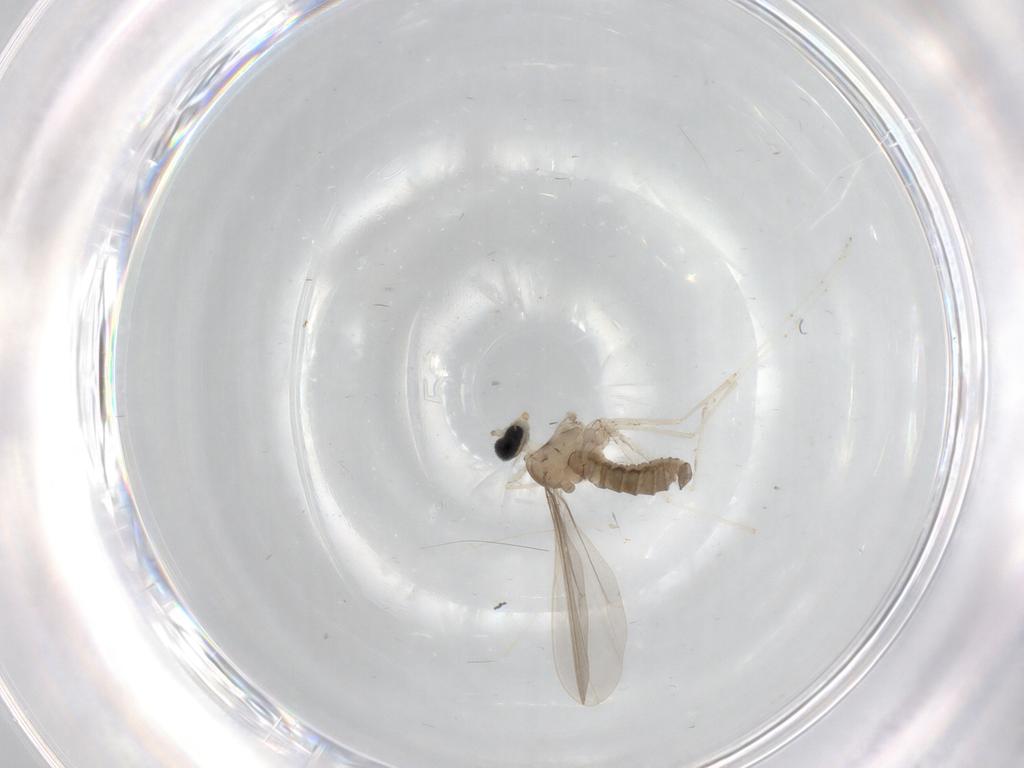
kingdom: Animalia
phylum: Arthropoda
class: Insecta
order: Diptera
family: Cecidomyiidae
